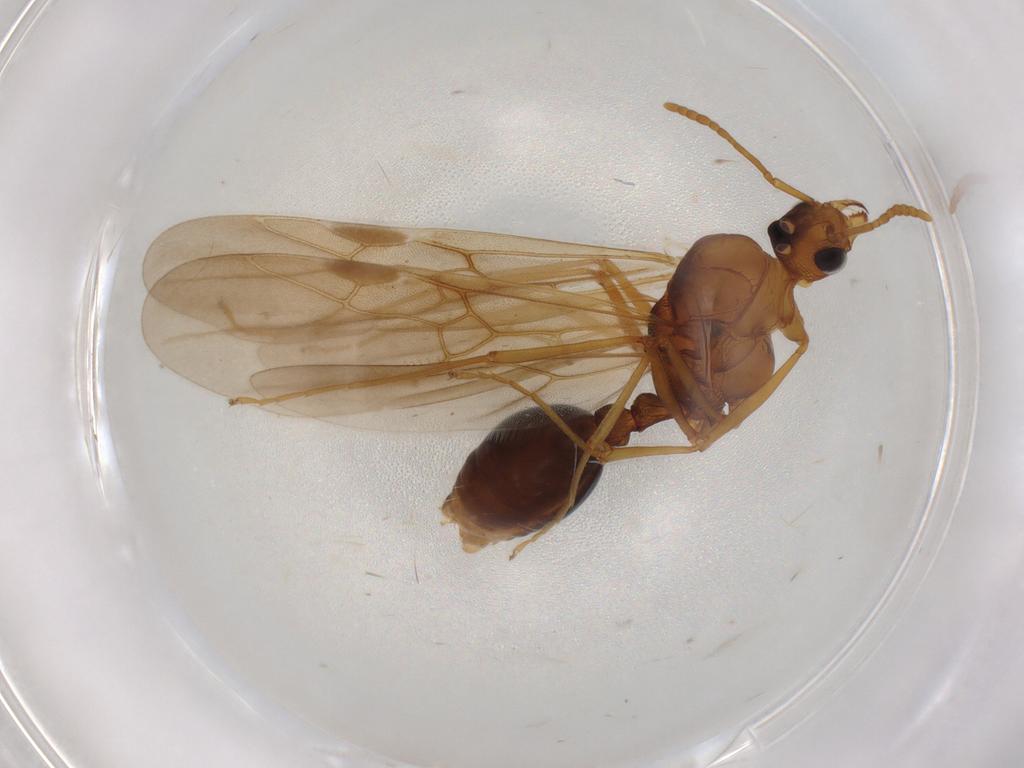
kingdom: Animalia
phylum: Arthropoda
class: Insecta
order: Hymenoptera
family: Formicidae
